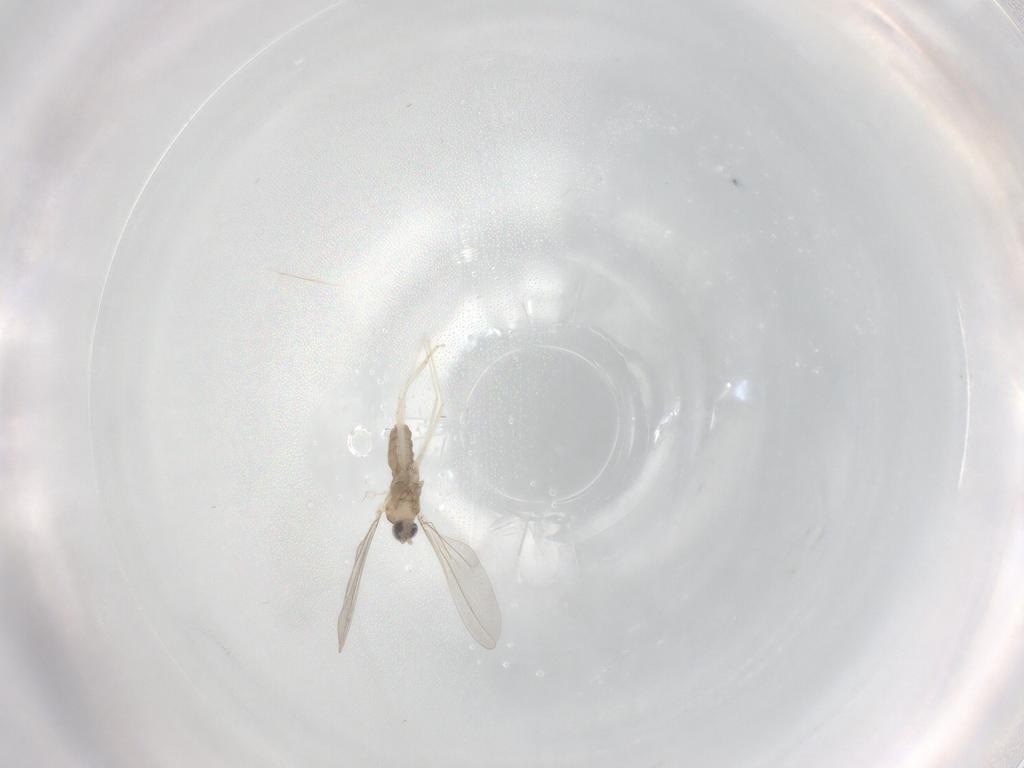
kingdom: Animalia
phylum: Arthropoda
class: Insecta
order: Diptera
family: Cecidomyiidae
